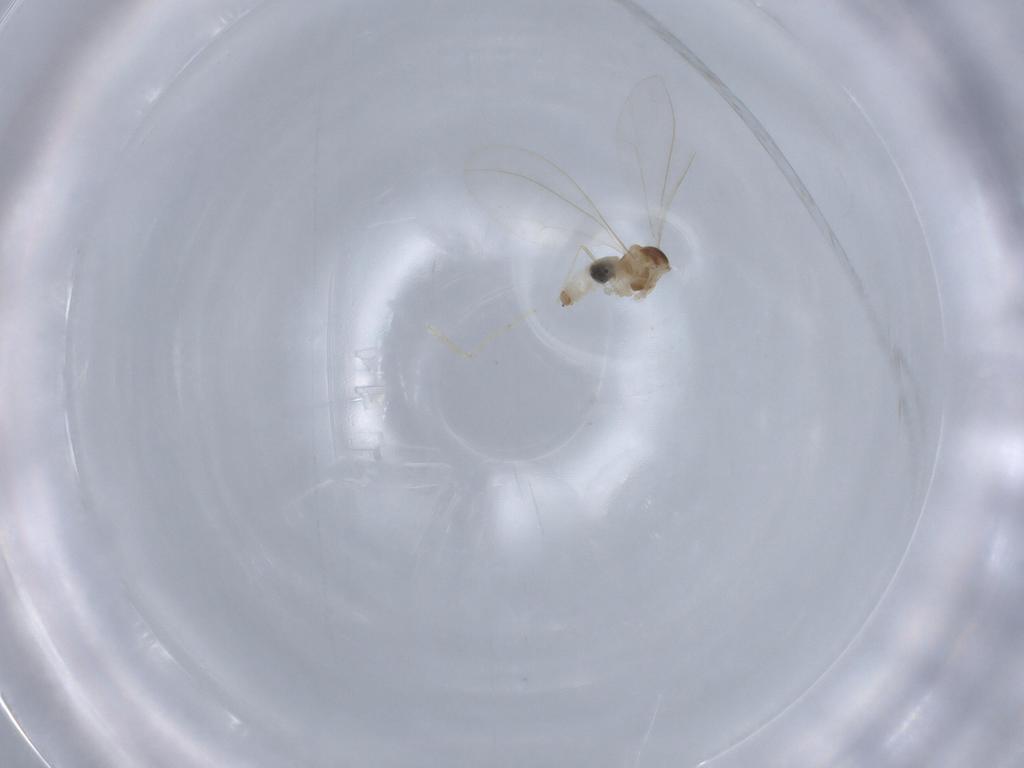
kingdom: Animalia
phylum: Arthropoda
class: Insecta
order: Diptera
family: Cecidomyiidae
